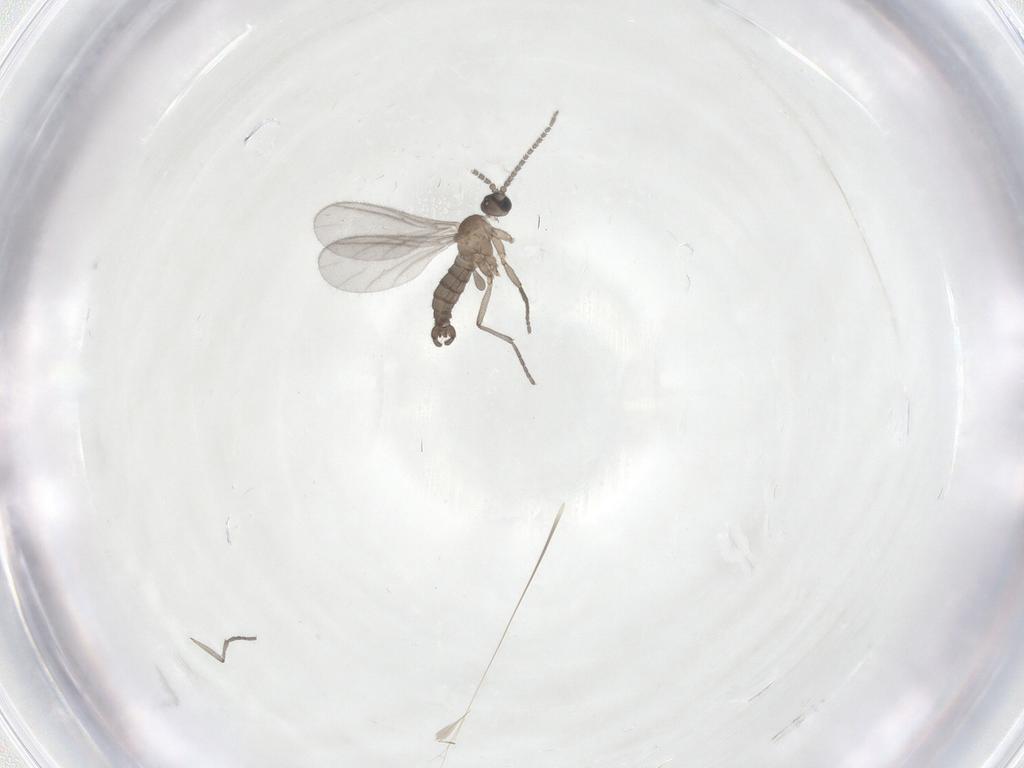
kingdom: Animalia
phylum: Arthropoda
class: Insecta
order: Diptera
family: Sciaridae
